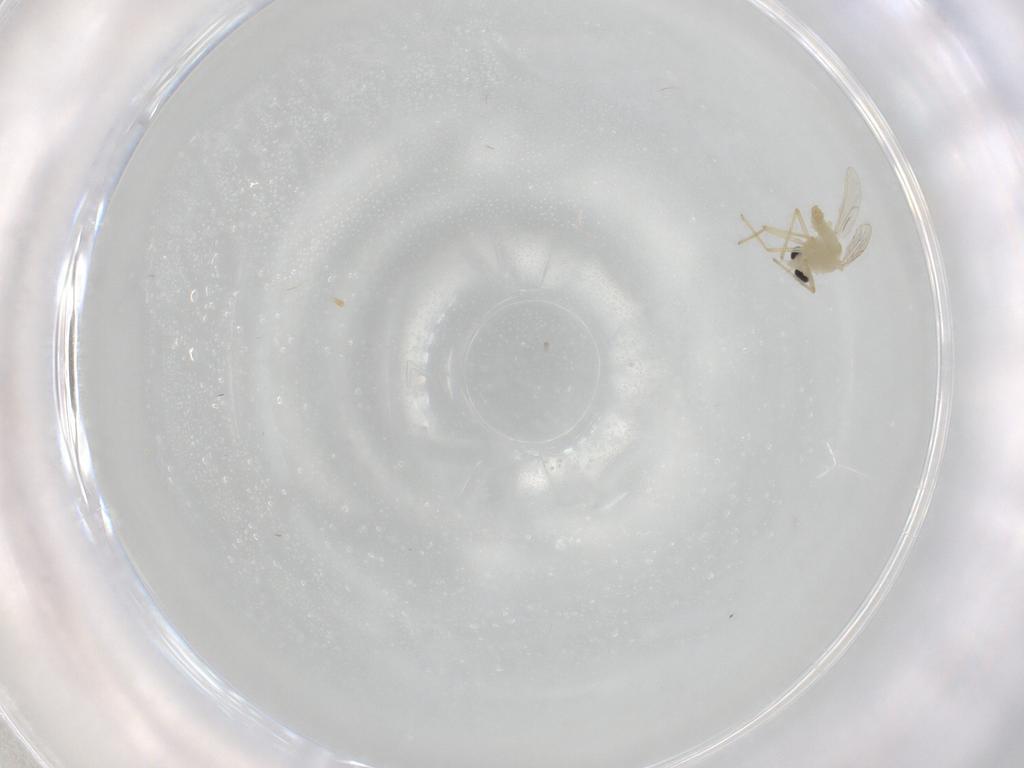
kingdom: Animalia
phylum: Arthropoda
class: Insecta
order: Diptera
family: Chironomidae
